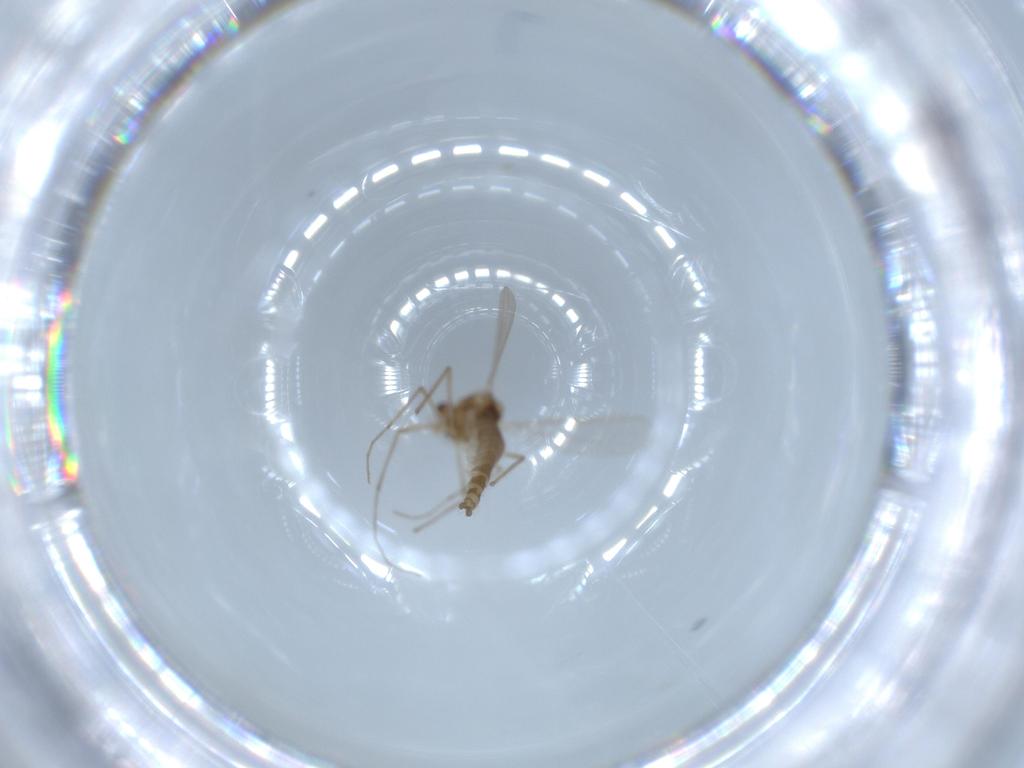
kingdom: Animalia
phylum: Arthropoda
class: Insecta
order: Diptera
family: Chironomidae
